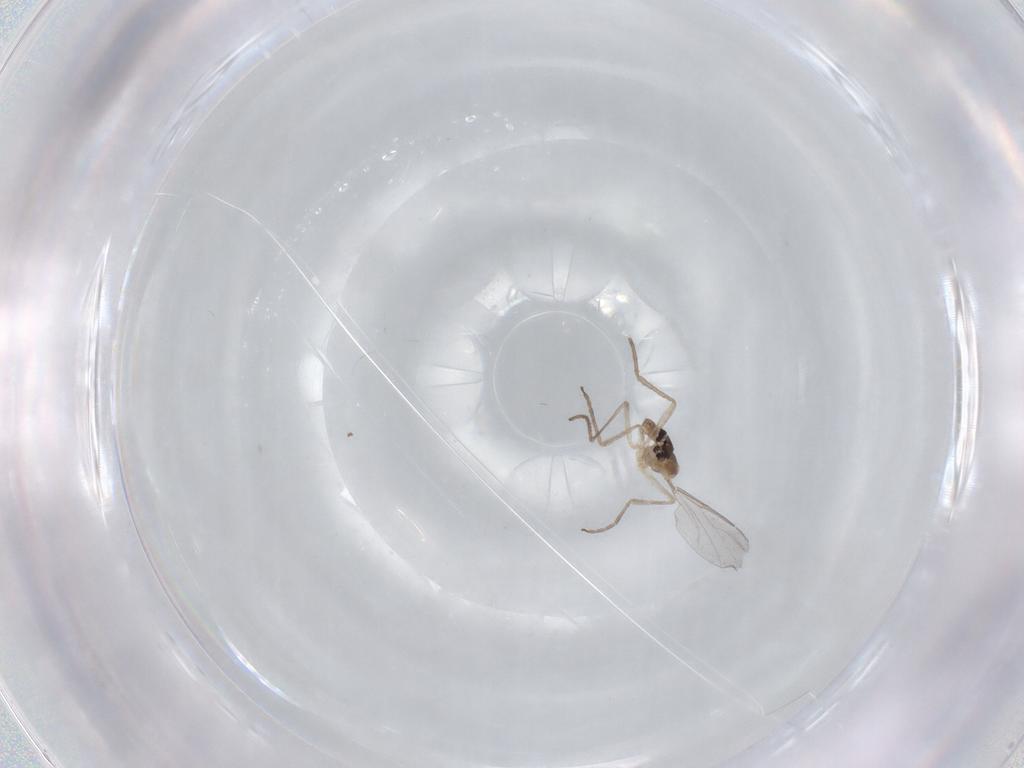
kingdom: Animalia
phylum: Arthropoda
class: Insecta
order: Diptera
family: Cecidomyiidae
